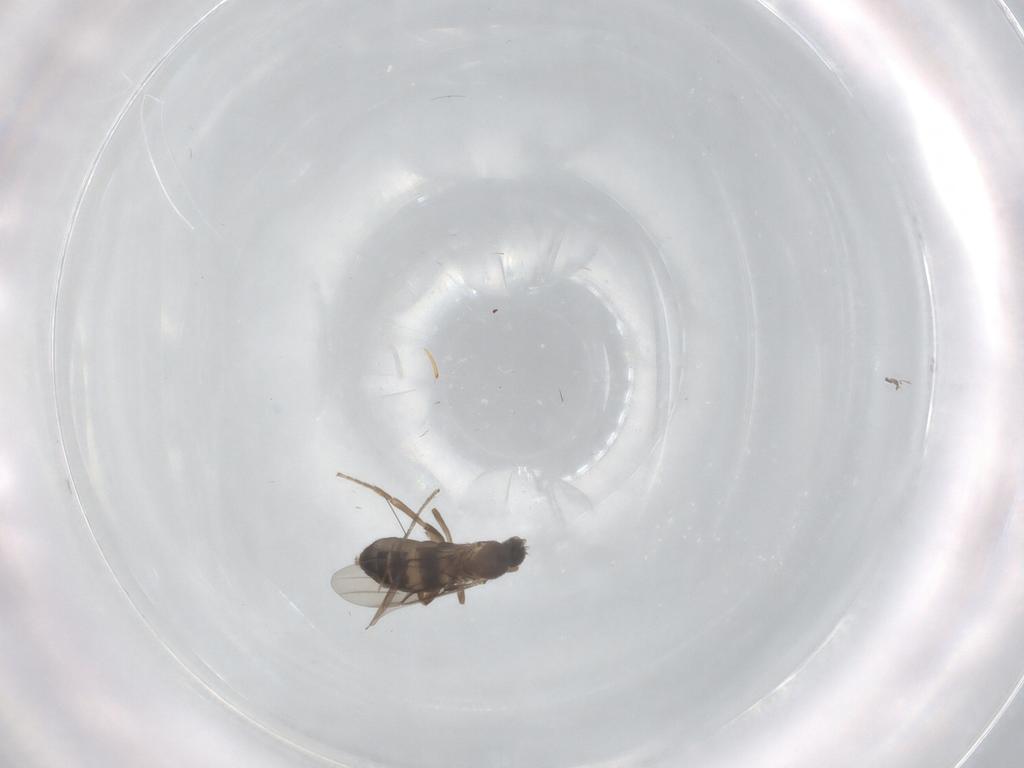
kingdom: Animalia
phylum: Arthropoda
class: Insecta
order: Diptera
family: Phoridae
